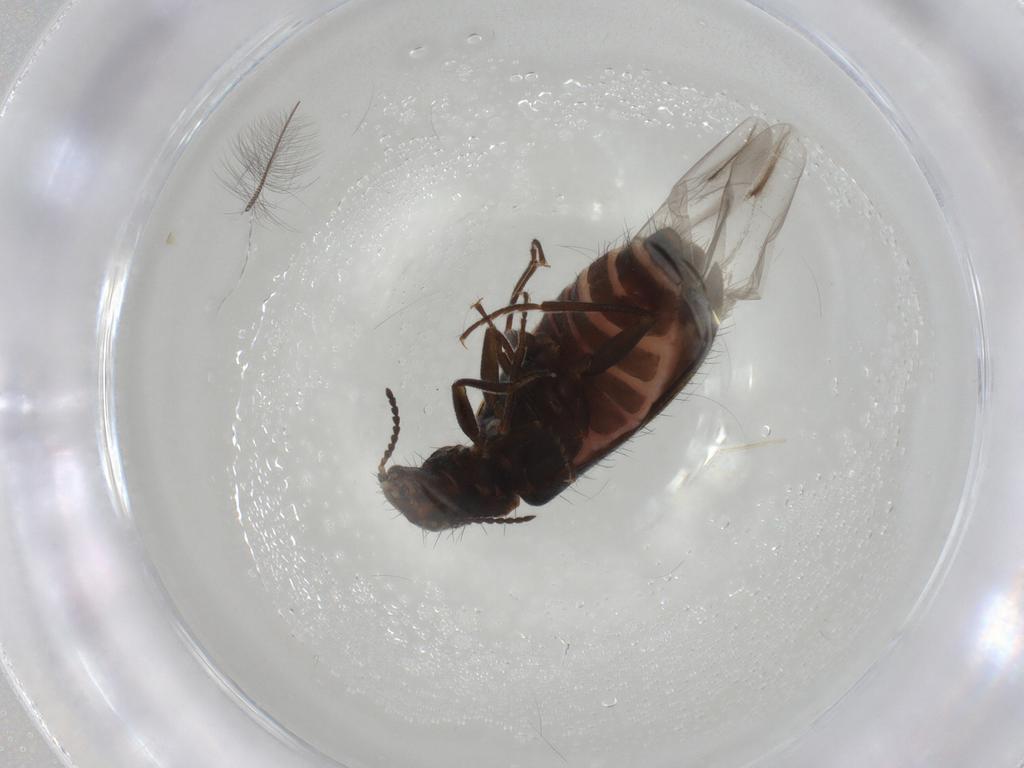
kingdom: Animalia
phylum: Arthropoda
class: Insecta
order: Coleoptera
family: Melyridae
